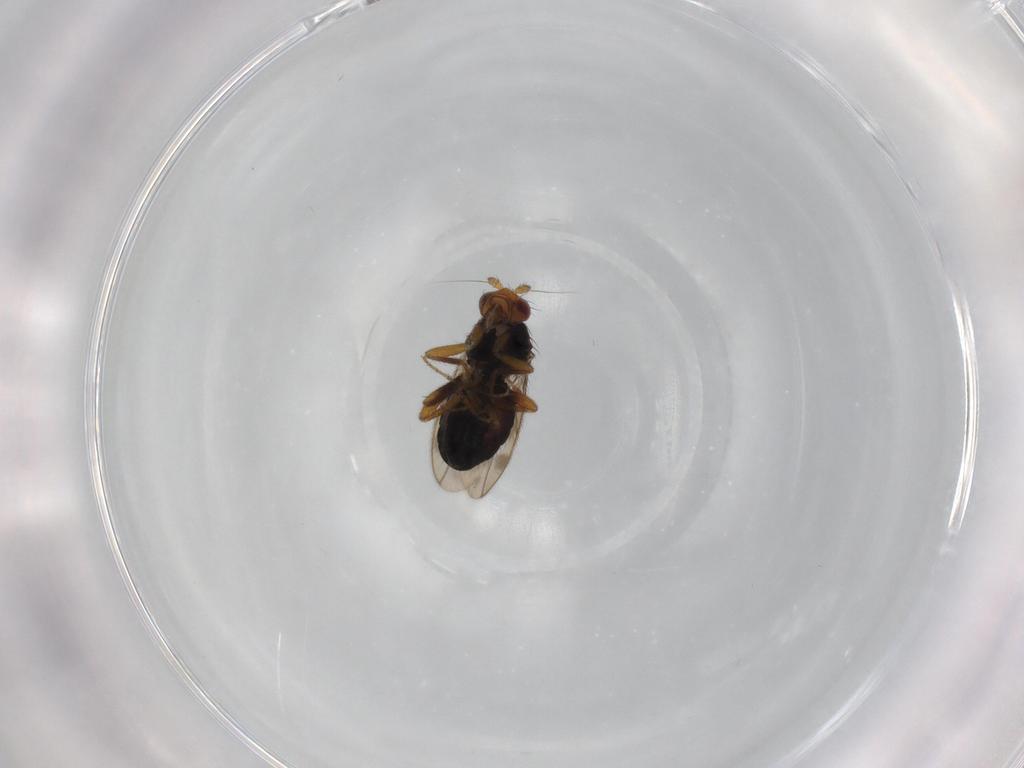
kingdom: Animalia
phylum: Arthropoda
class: Insecta
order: Diptera
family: Sphaeroceridae
